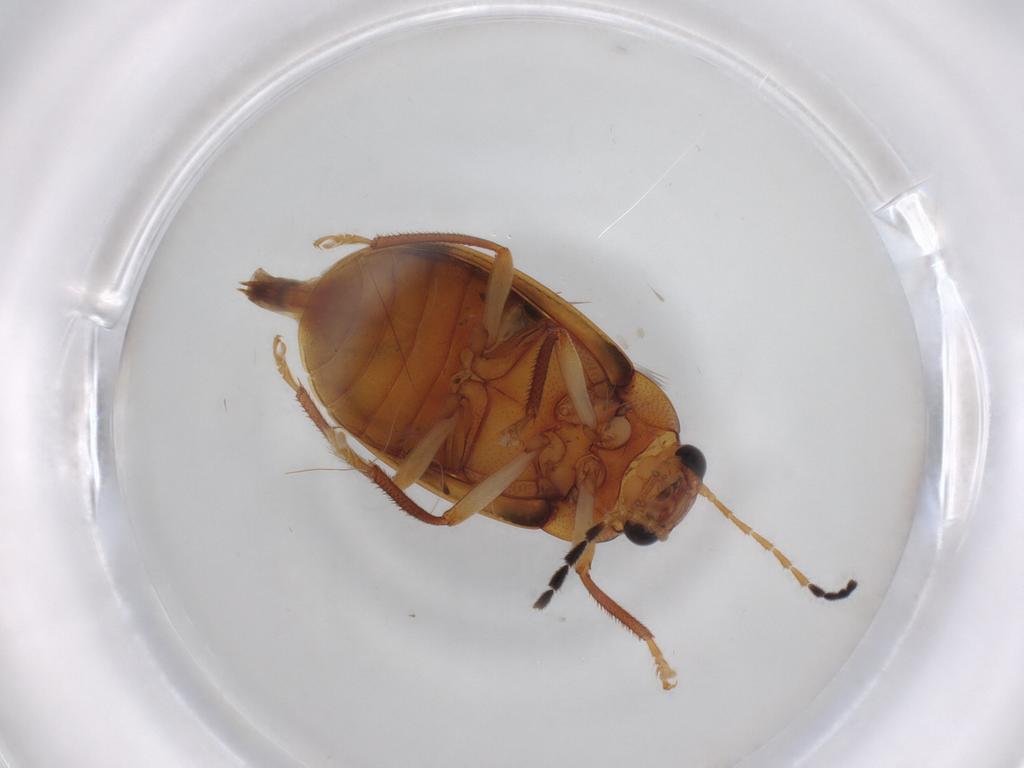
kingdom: Animalia
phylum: Arthropoda
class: Insecta
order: Coleoptera
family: Ptilodactylidae
